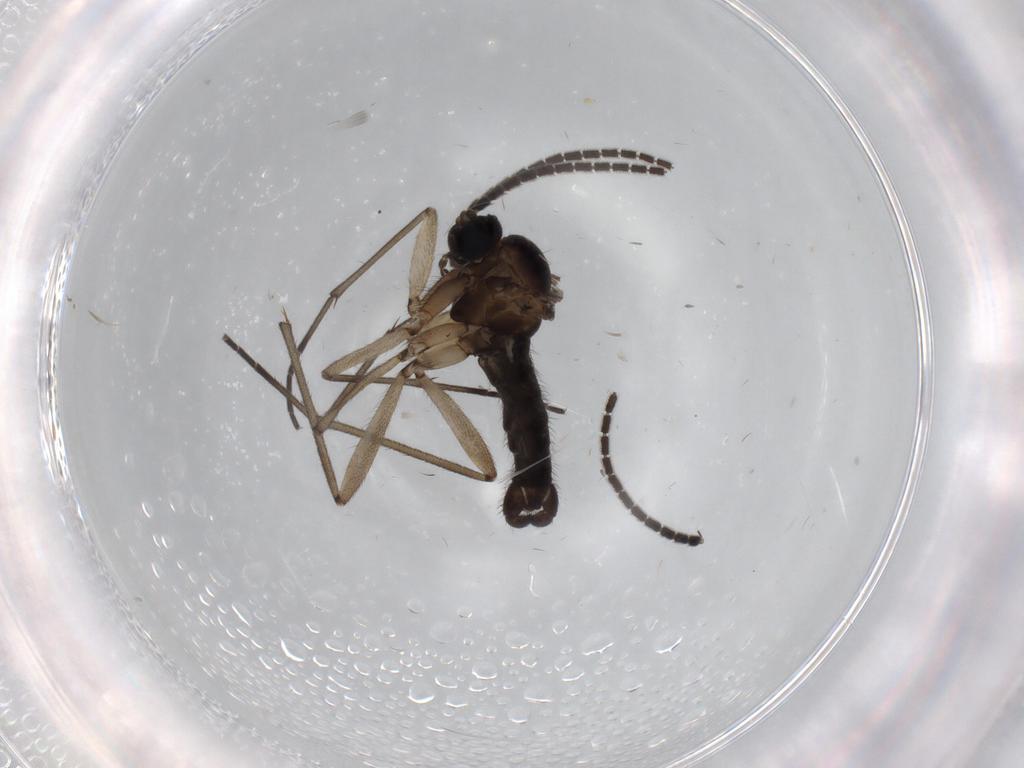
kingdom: Animalia
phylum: Arthropoda
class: Insecta
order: Diptera
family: Sciaridae
